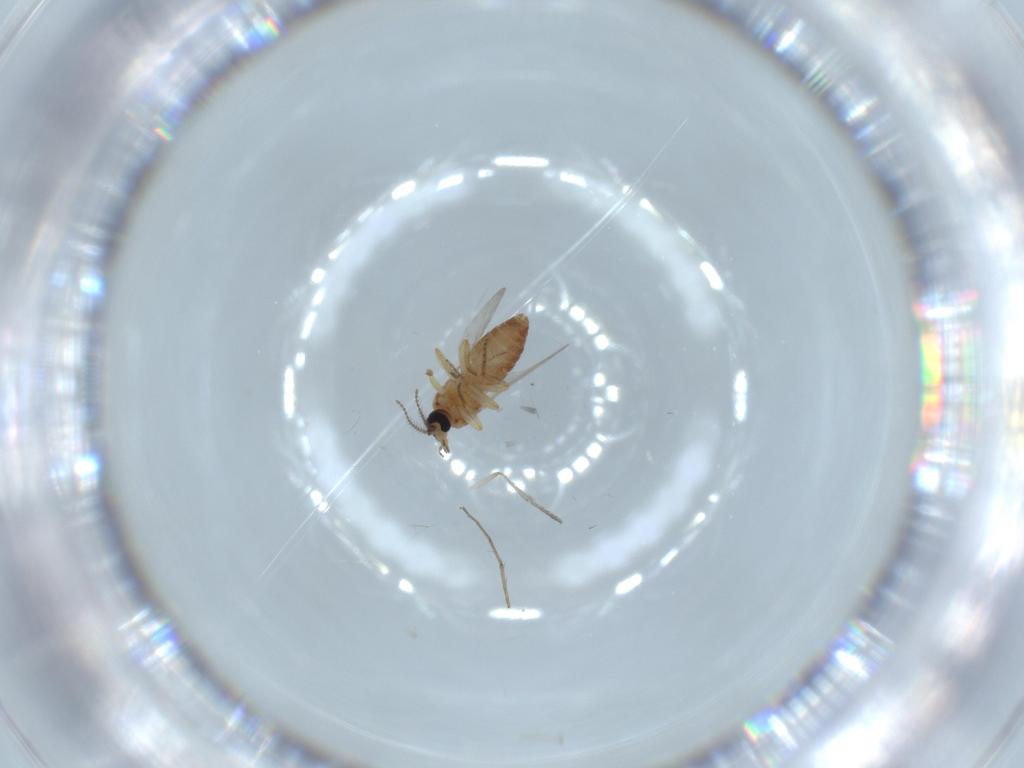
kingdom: Animalia
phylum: Arthropoda
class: Insecta
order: Diptera
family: Ceratopogonidae
